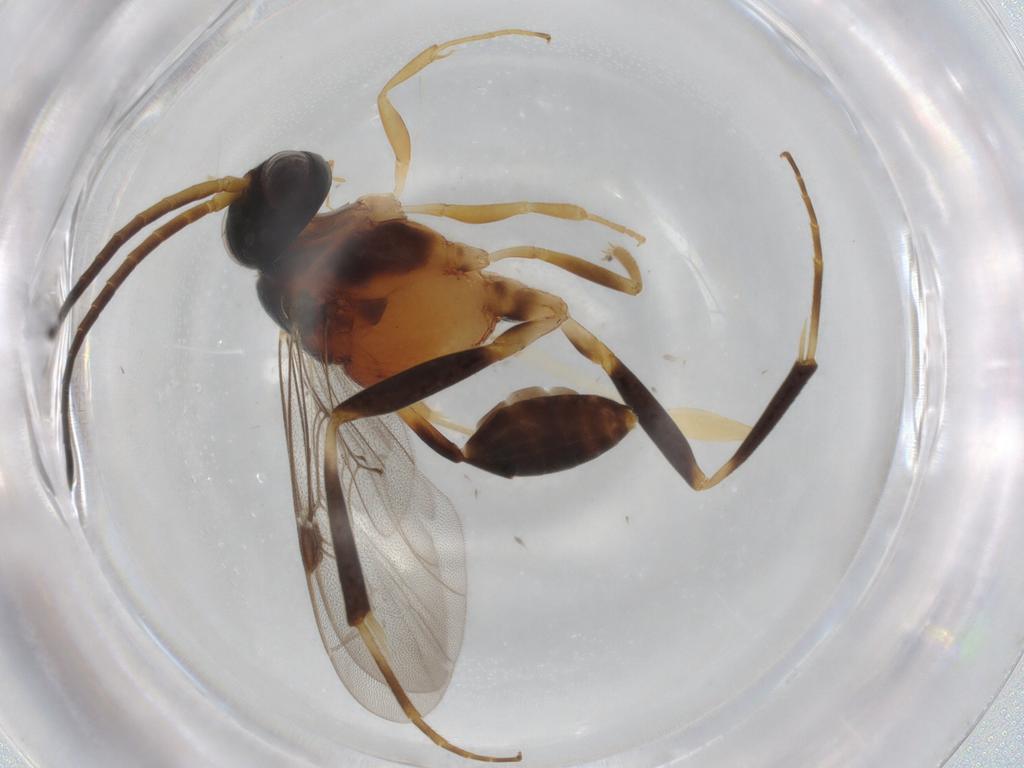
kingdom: Animalia
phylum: Arthropoda
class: Insecta
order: Hymenoptera
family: Evaniidae
